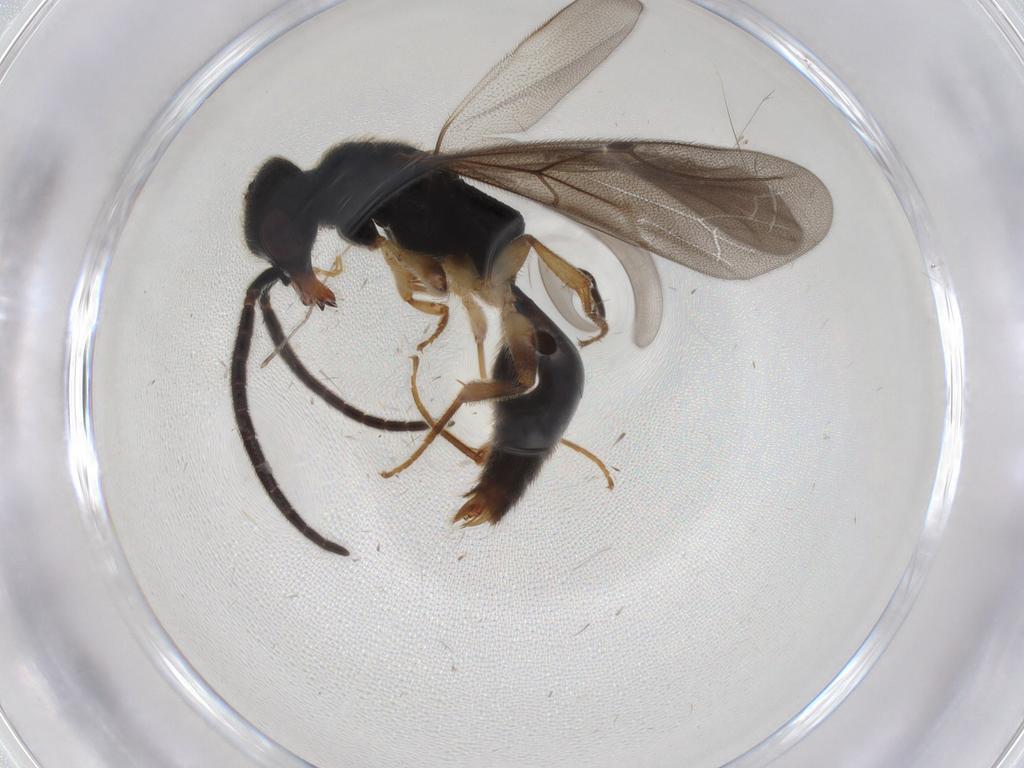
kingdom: Animalia
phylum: Arthropoda
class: Insecta
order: Hymenoptera
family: Bethylidae
